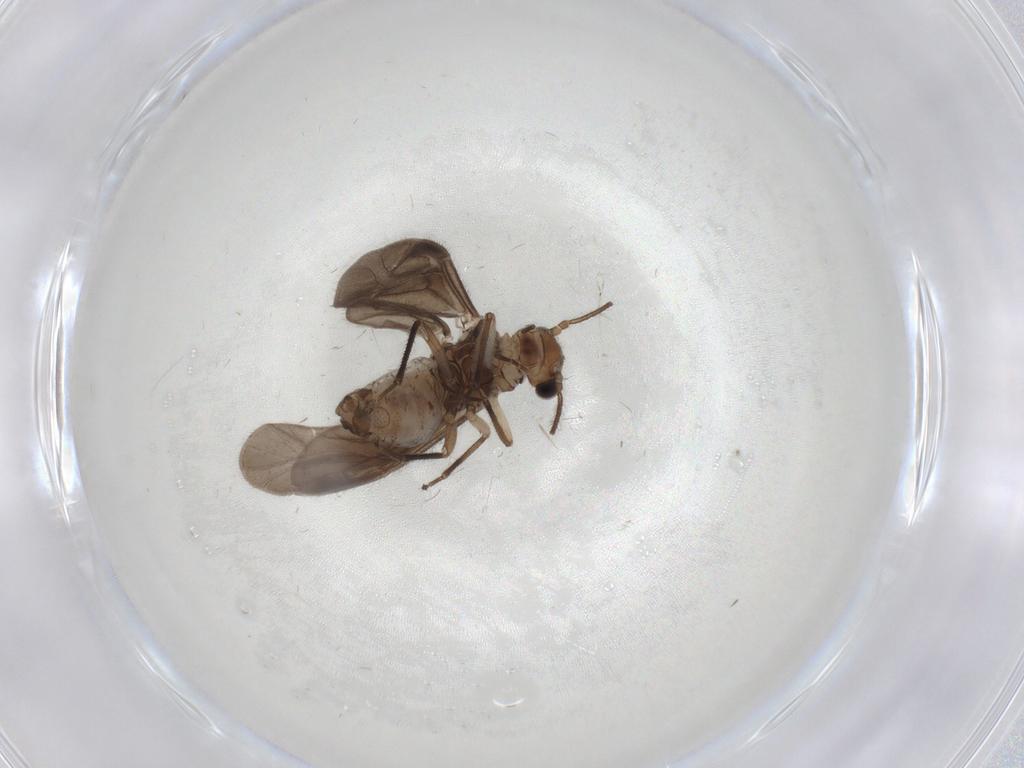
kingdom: Animalia
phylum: Arthropoda
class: Insecta
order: Psocodea
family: Caeciliusidae
